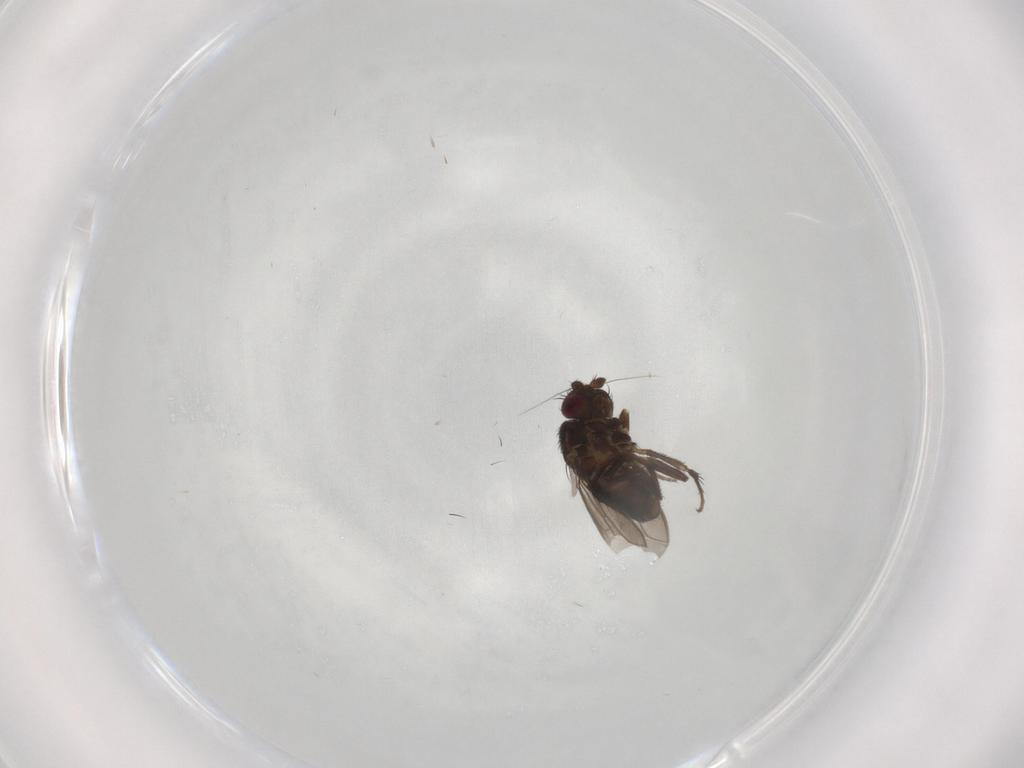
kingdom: Animalia
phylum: Arthropoda
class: Insecta
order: Diptera
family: Sphaeroceridae
